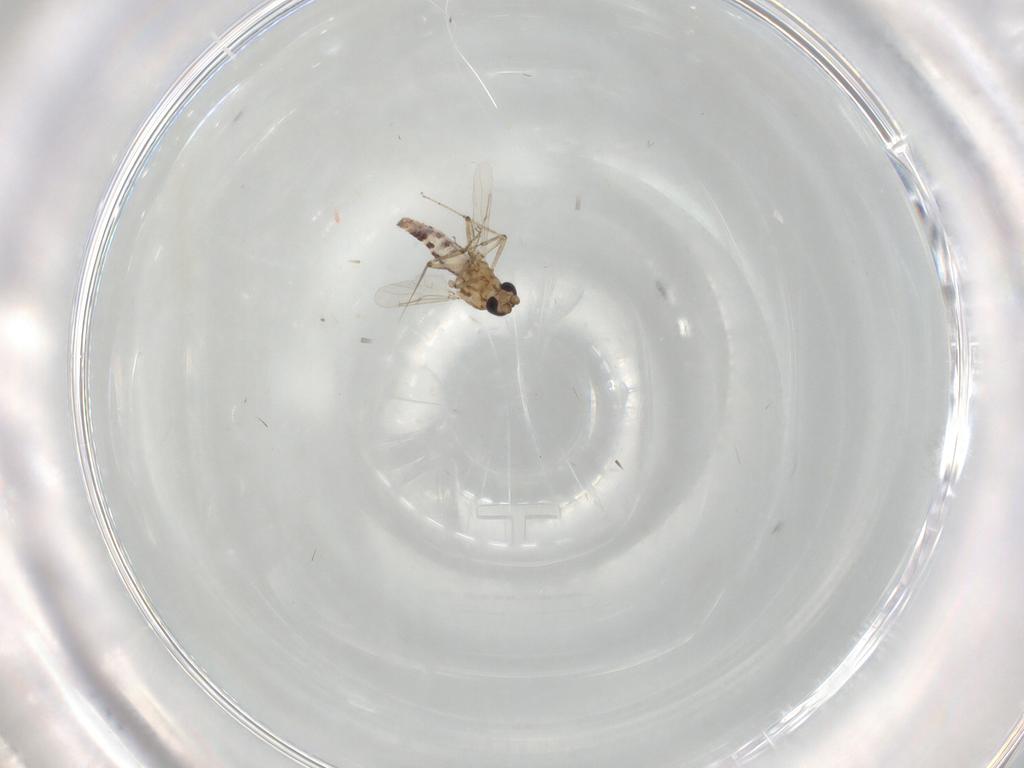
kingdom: Animalia
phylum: Arthropoda
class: Insecta
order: Diptera
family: Ceratopogonidae
